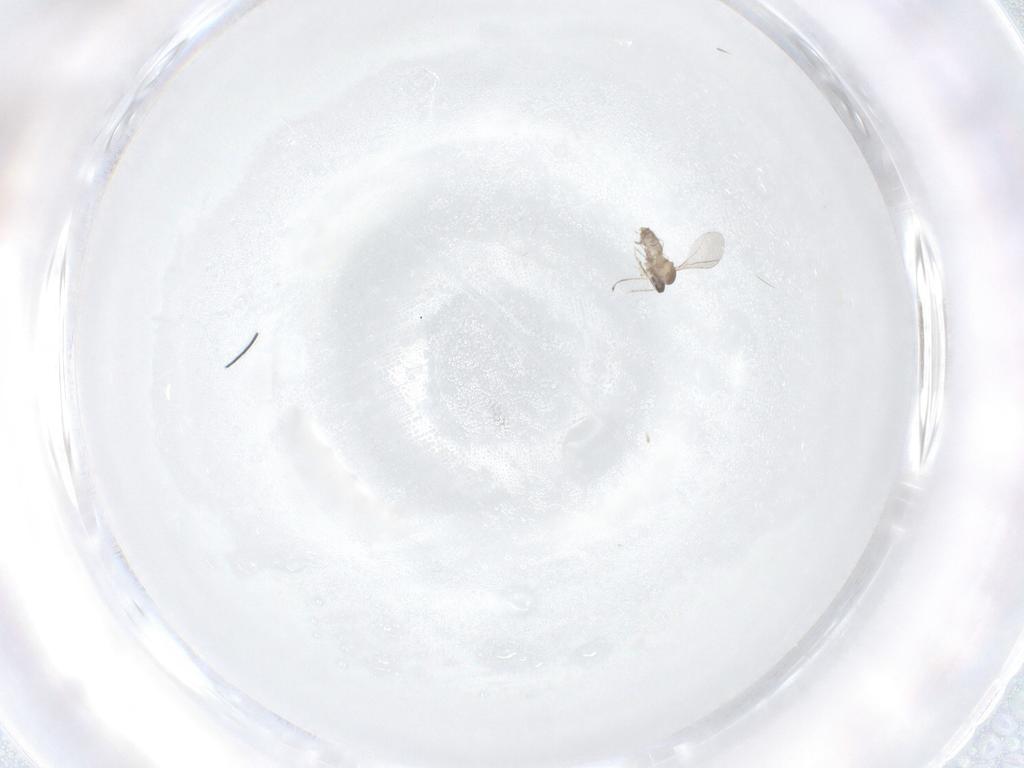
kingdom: Animalia
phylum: Arthropoda
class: Insecta
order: Diptera
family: Cecidomyiidae
